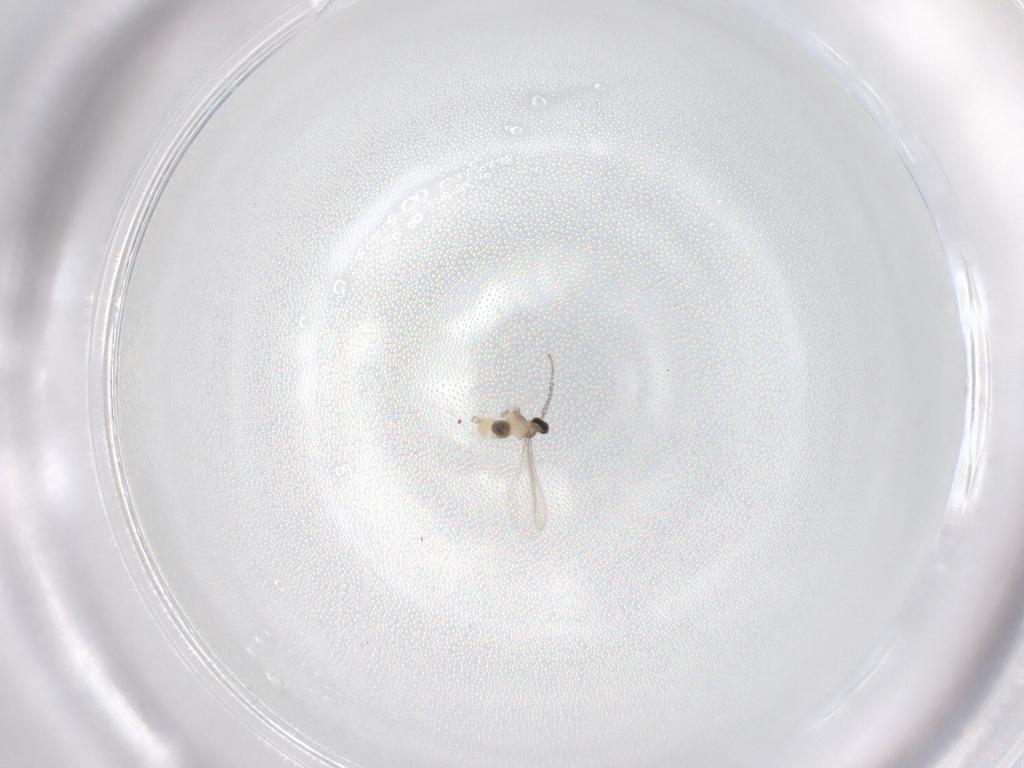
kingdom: Animalia
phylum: Arthropoda
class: Insecta
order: Diptera
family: Cecidomyiidae
